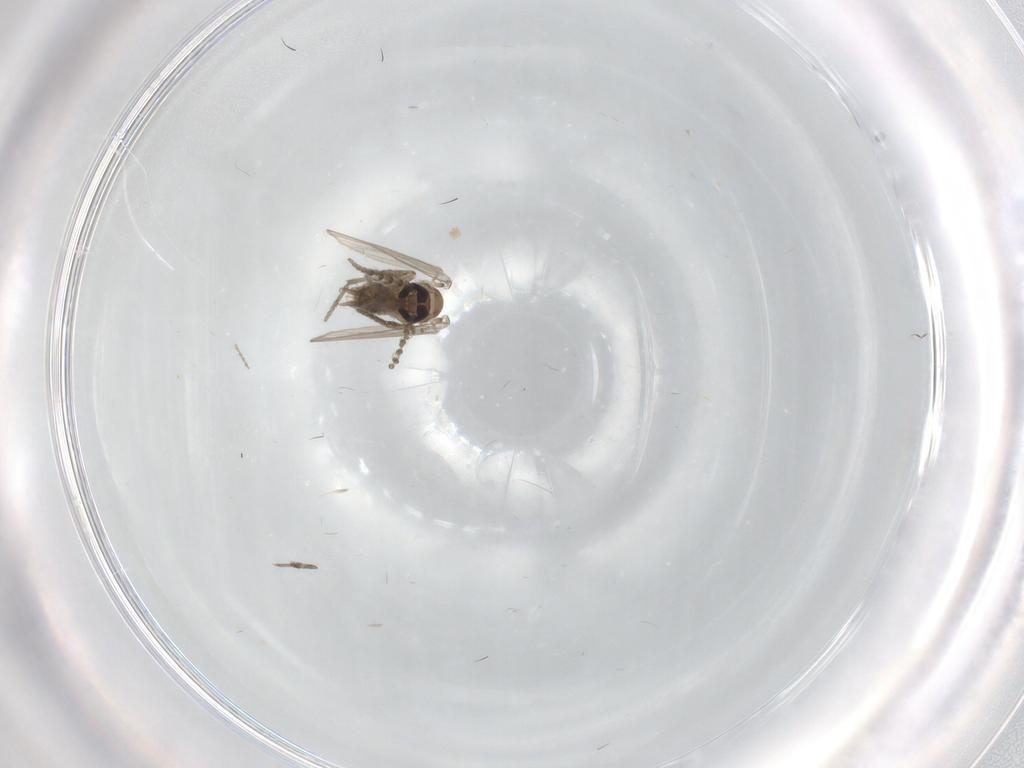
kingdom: Animalia
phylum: Arthropoda
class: Insecta
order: Diptera
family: Psychodidae
